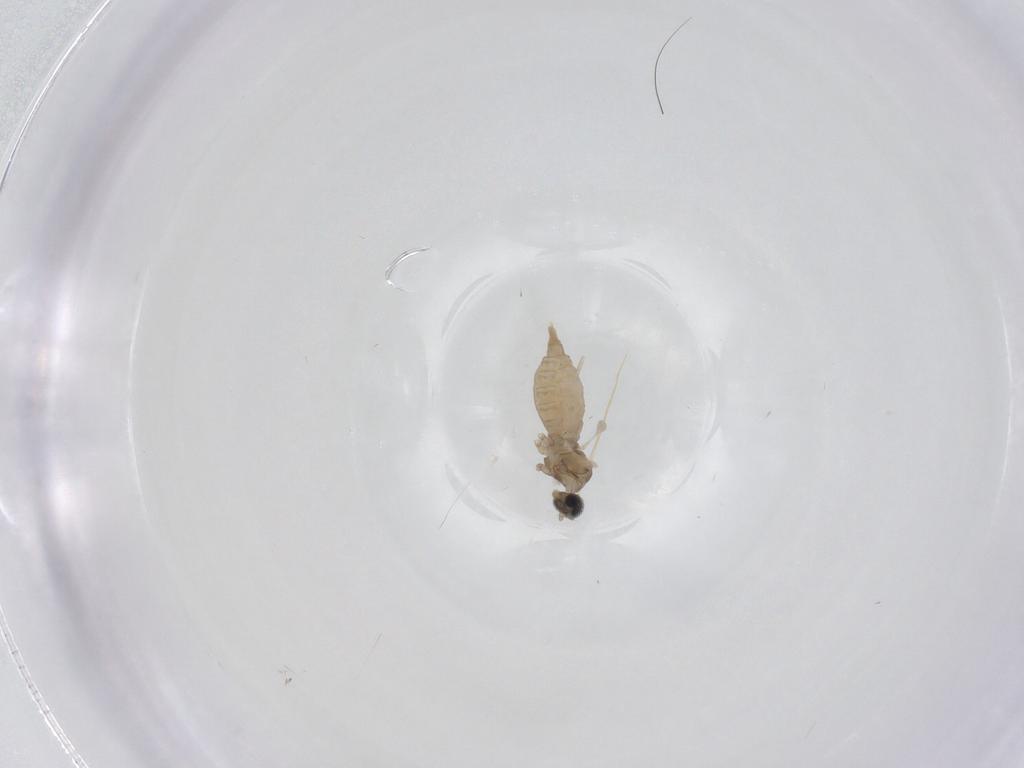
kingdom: Animalia
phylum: Arthropoda
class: Insecta
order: Diptera
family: Cecidomyiidae
